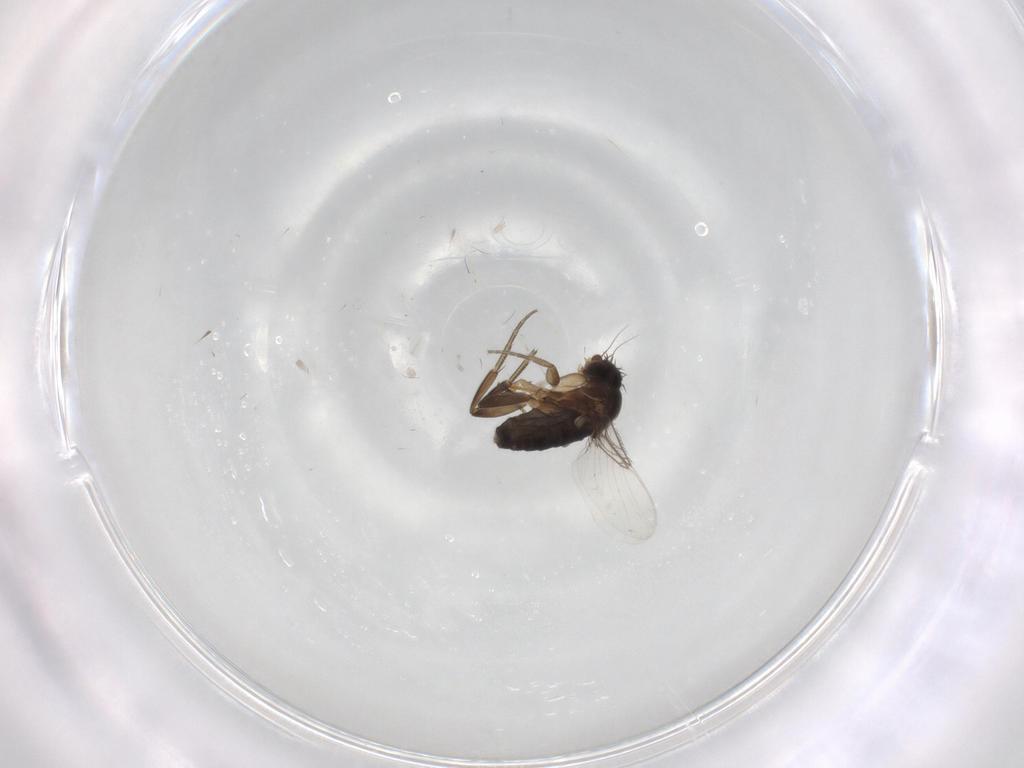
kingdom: Animalia
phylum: Arthropoda
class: Insecta
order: Diptera
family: Phoridae
